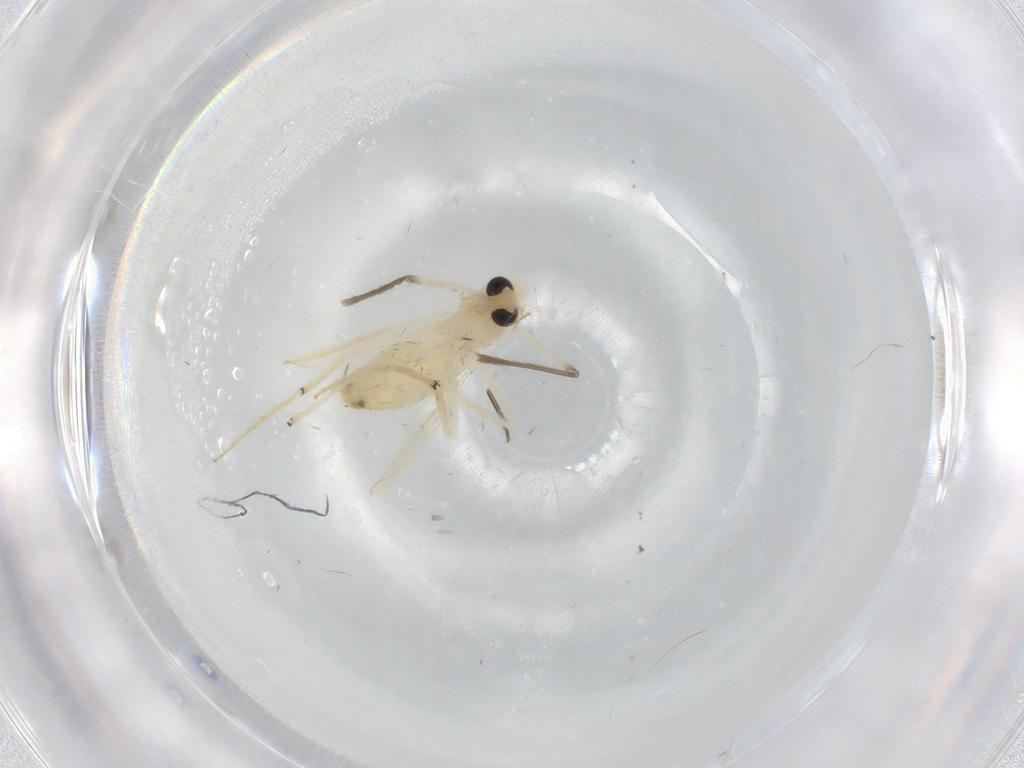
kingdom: Animalia
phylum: Arthropoda
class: Insecta
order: Diptera
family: Chironomidae
